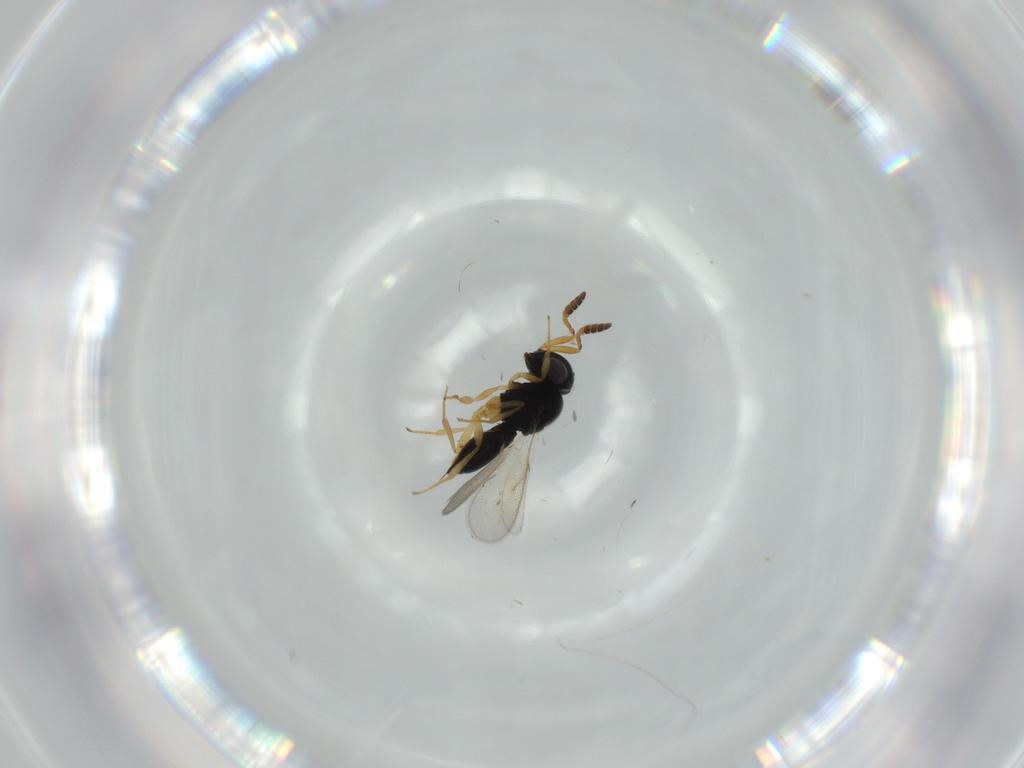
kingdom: Animalia
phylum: Arthropoda
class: Insecta
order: Hymenoptera
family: Scelionidae
